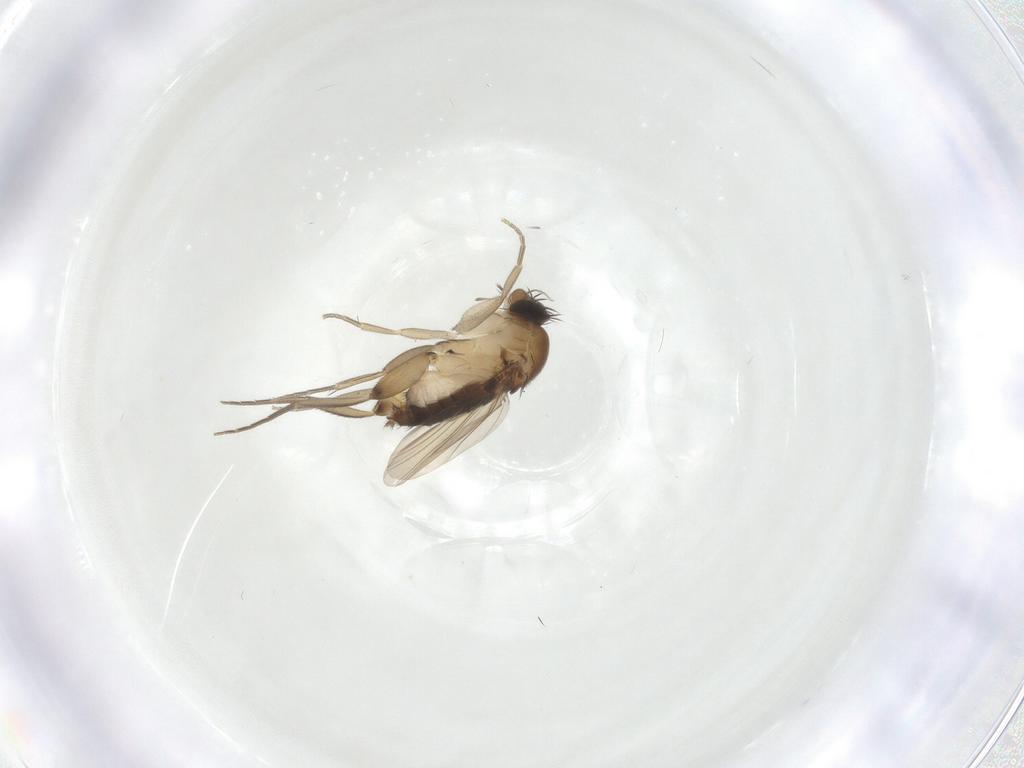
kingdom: Animalia
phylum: Arthropoda
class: Insecta
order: Diptera
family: Phoridae
